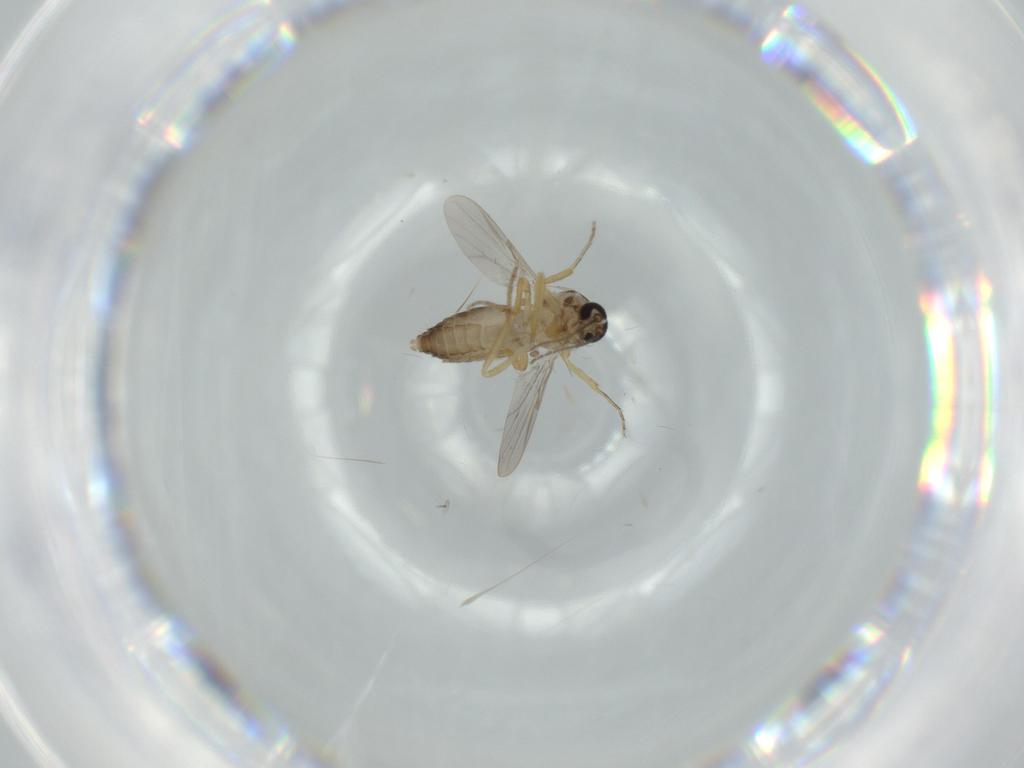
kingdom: Animalia
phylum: Arthropoda
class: Insecta
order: Diptera
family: Ceratopogonidae
